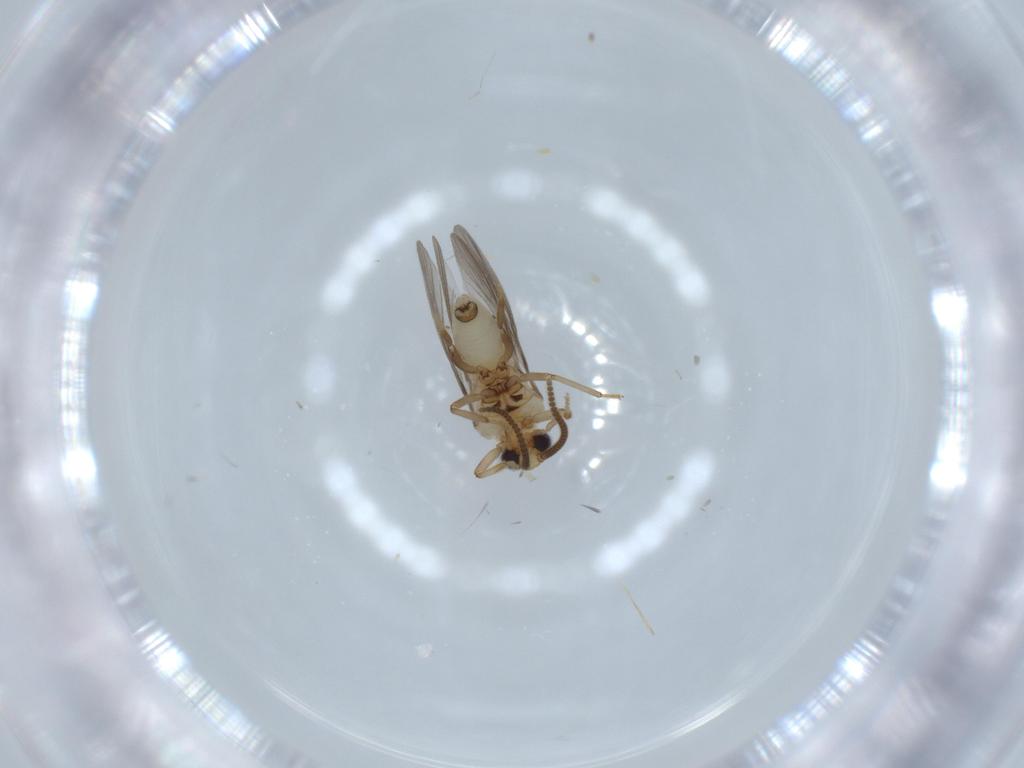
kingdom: Animalia
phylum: Arthropoda
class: Insecta
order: Neuroptera
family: Coniopterygidae
